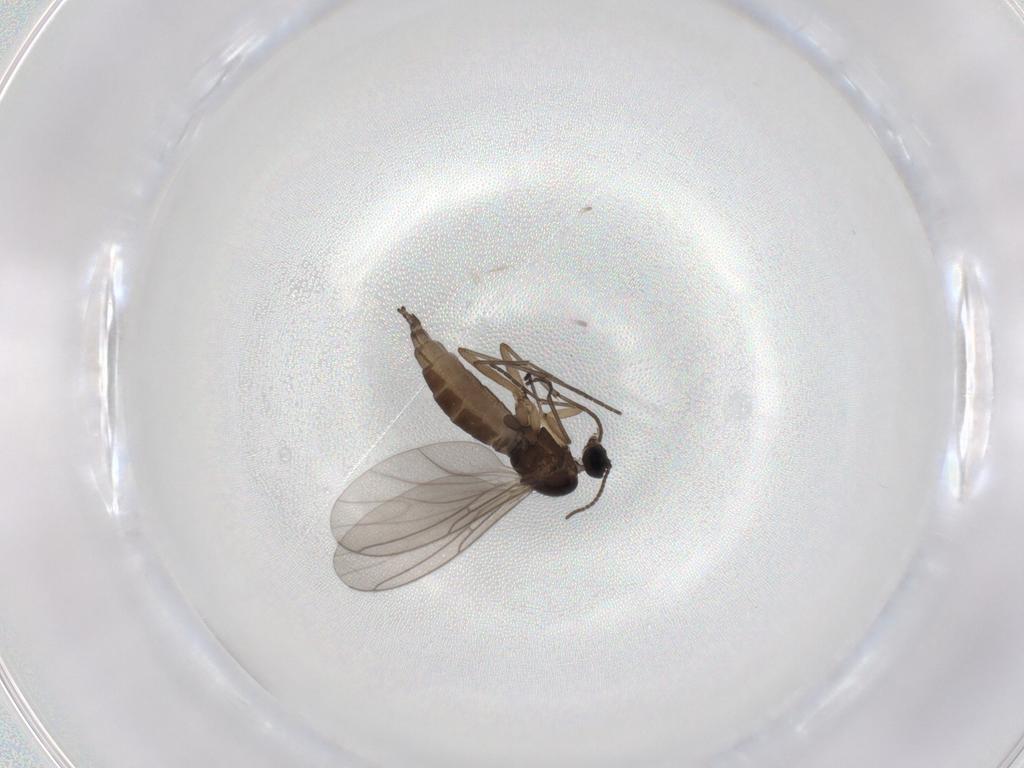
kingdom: Animalia
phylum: Arthropoda
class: Insecta
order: Diptera
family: Sciaridae
